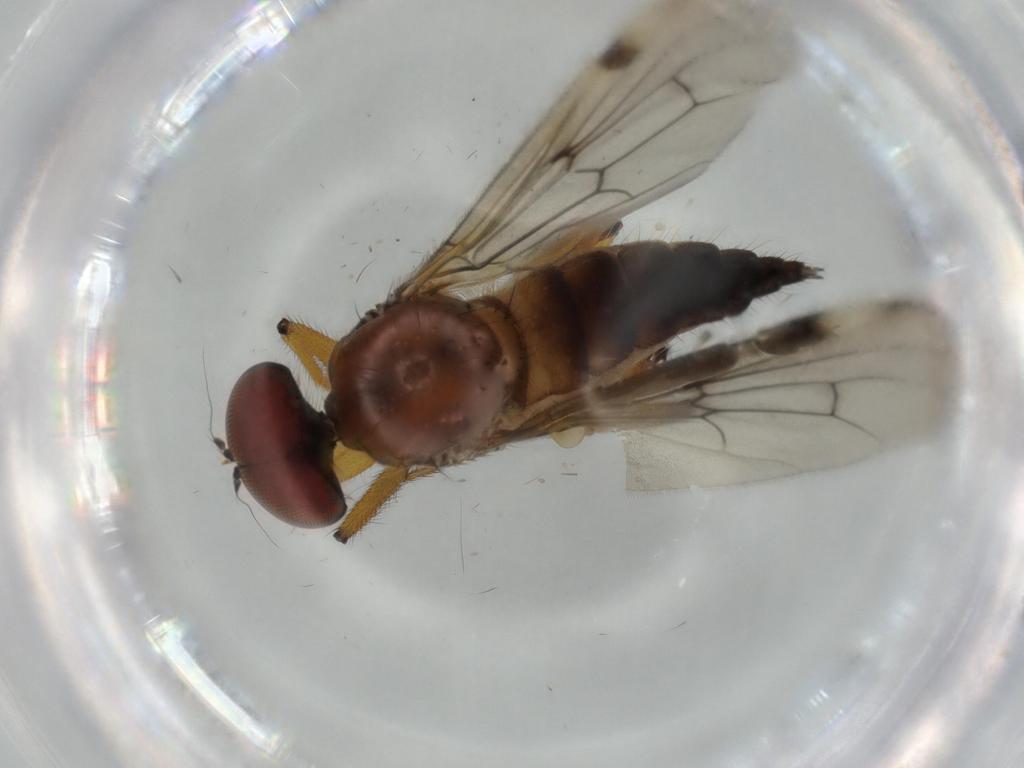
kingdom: Animalia
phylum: Arthropoda
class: Insecta
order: Diptera
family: Hybotidae
